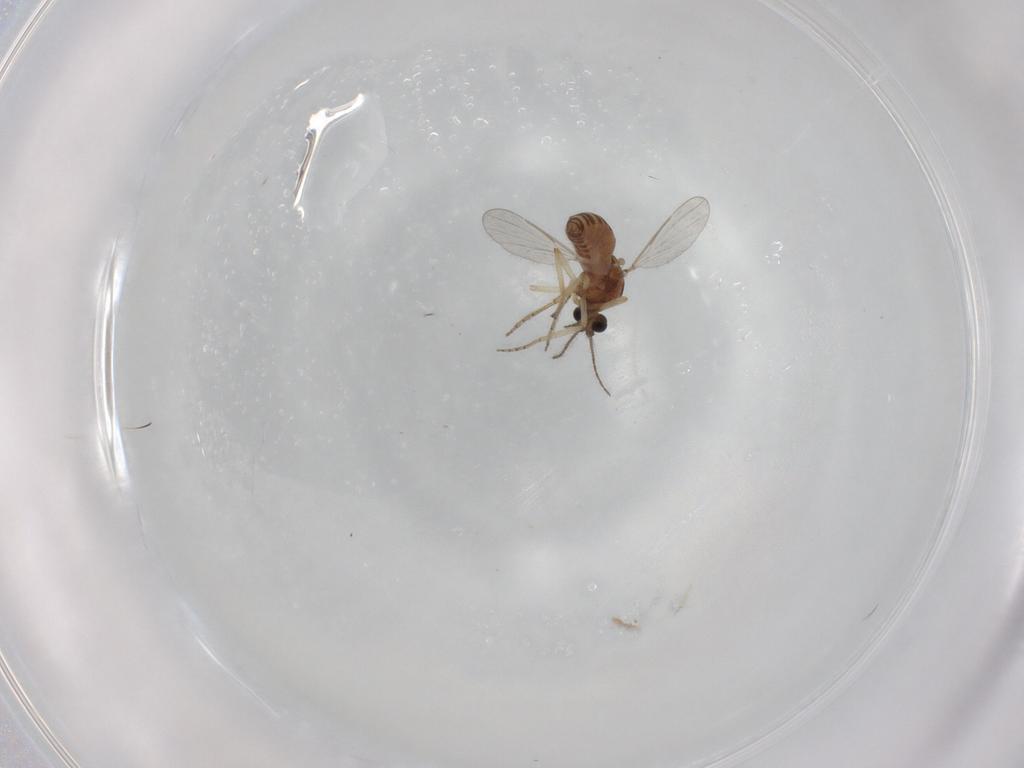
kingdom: Animalia
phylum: Arthropoda
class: Insecta
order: Diptera
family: Ceratopogonidae
